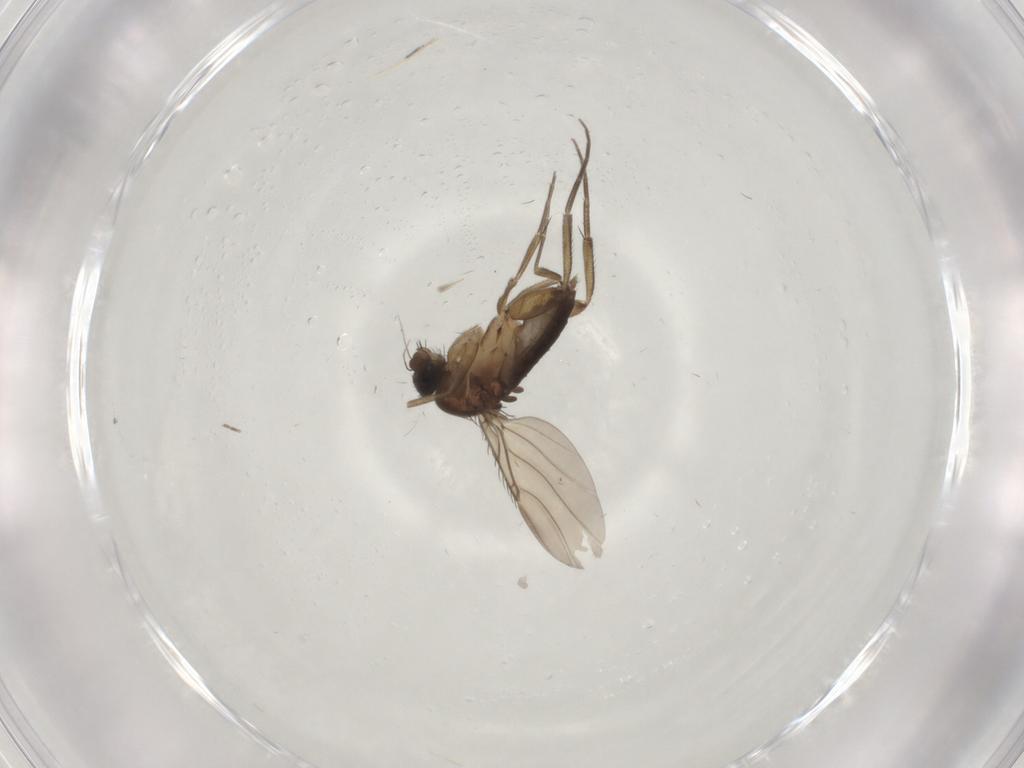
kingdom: Animalia
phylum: Arthropoda
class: Insecta
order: Diptera
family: Phoridae
